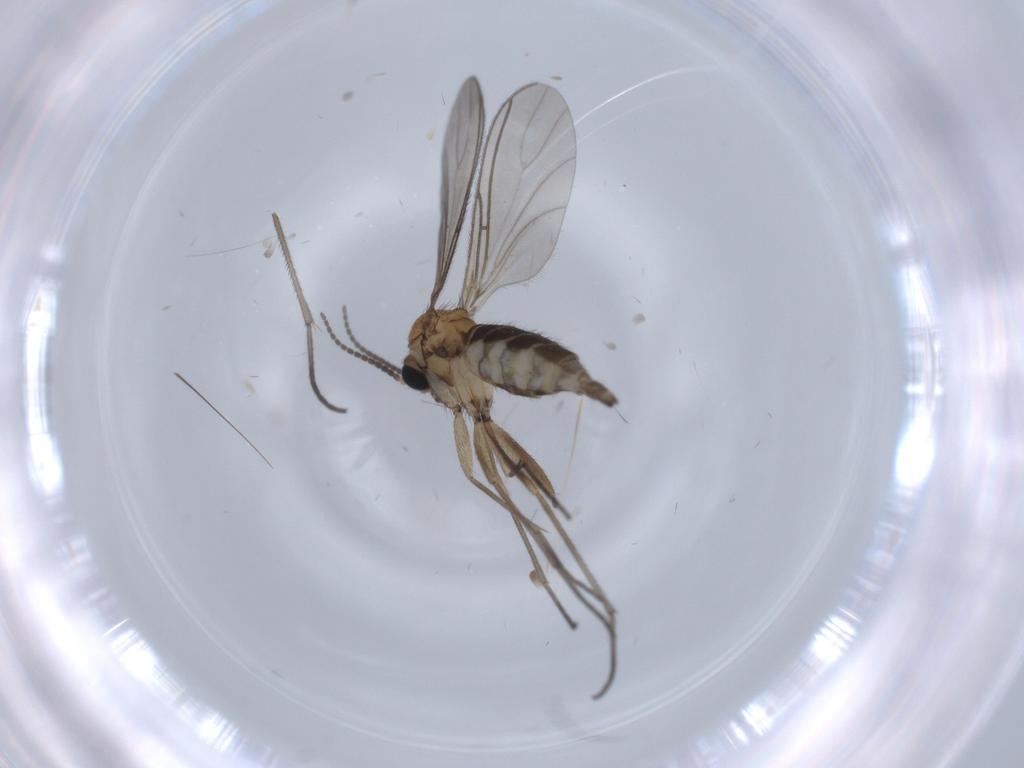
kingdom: Animalia
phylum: Arthropoda
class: Insecta
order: Diptera
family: Sciaridae
